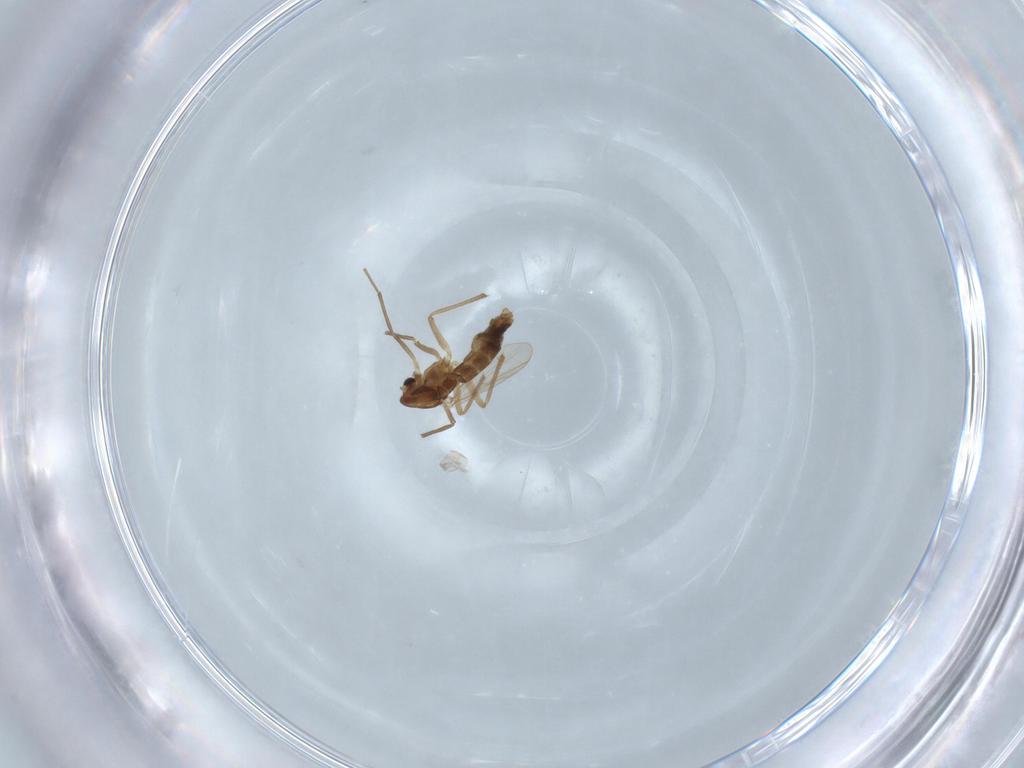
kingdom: Animalia
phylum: Arthropoda
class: Insecta
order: Diptera
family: Chironomidae
